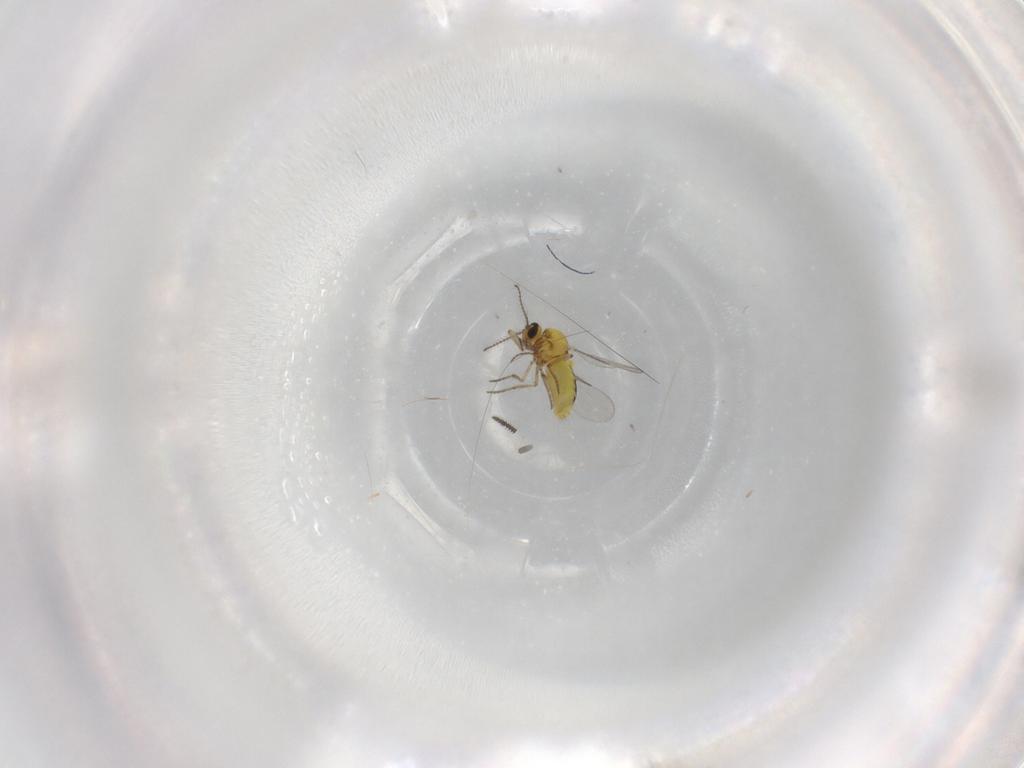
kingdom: Animalia
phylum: Arthropoda
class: Insecta
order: Diptera
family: Ceratopogonidae
